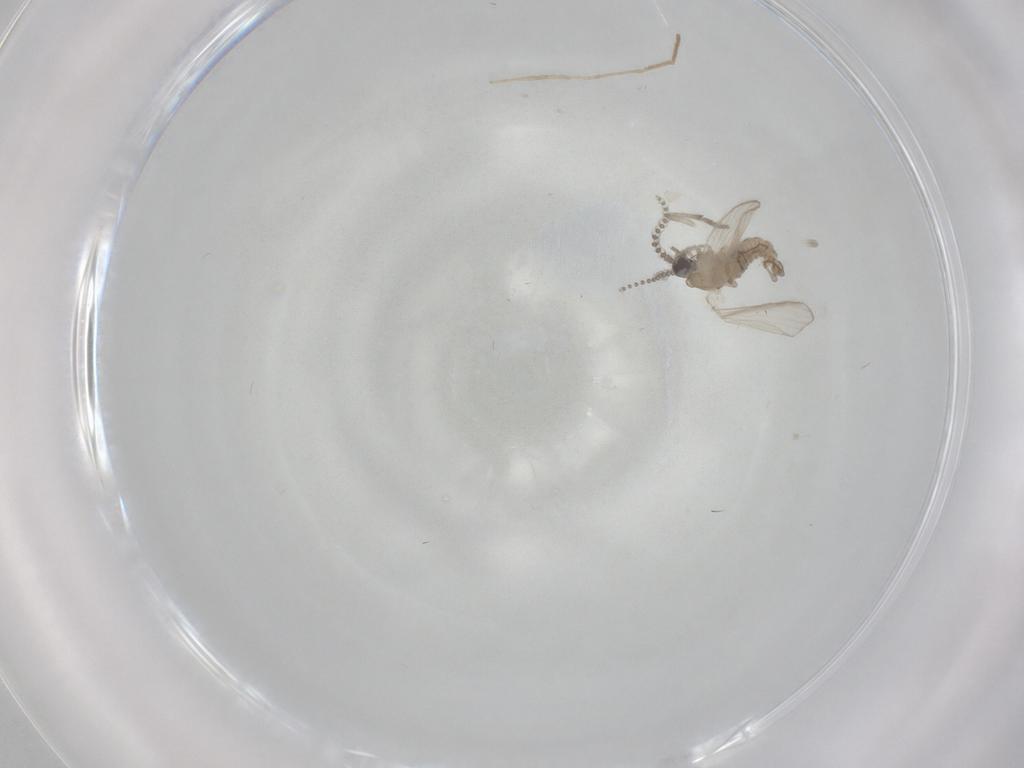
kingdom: Animalia
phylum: Arthropoda
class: Insecta
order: Diptera
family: Psychodidae
